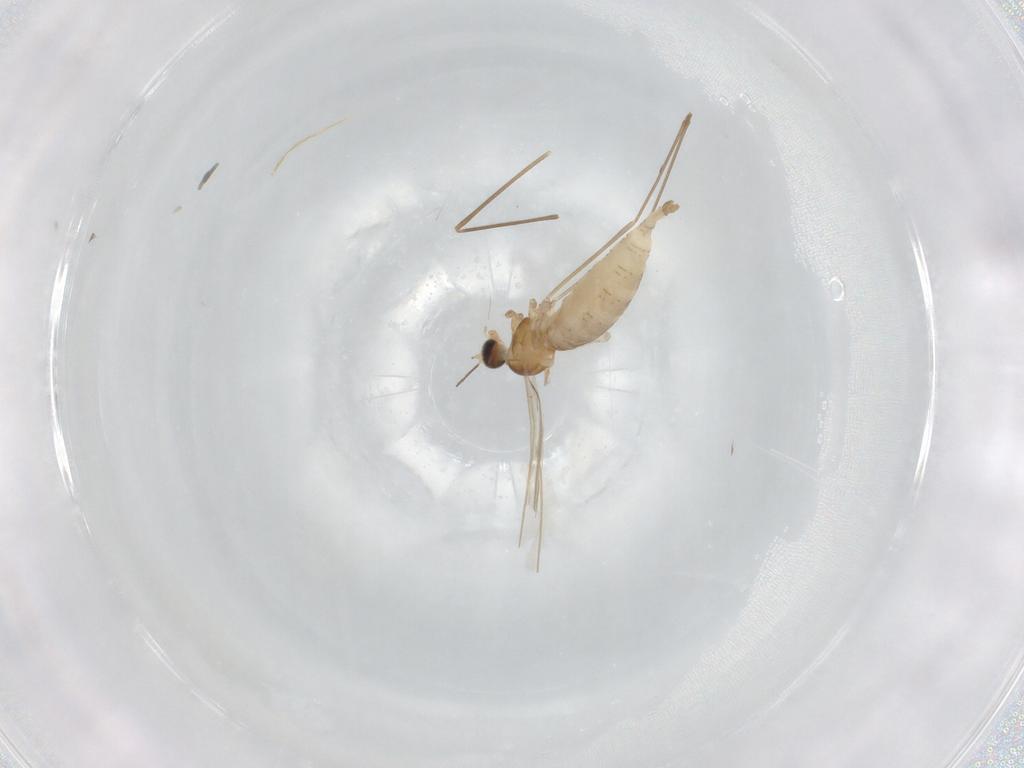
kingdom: Animalia
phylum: Arthropoda
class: Insecta
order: Diptera
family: Cecidomyiidae
